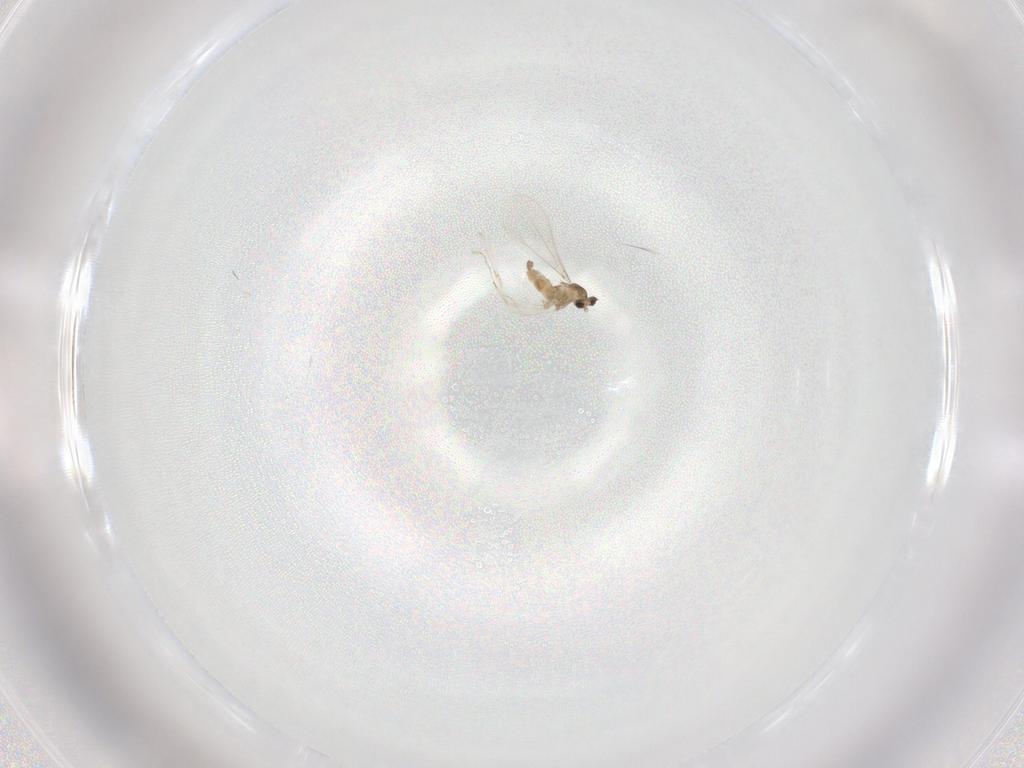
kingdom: Animalia
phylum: Arthropoda
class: Insecta
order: Diptera
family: Cecidomyiidae
